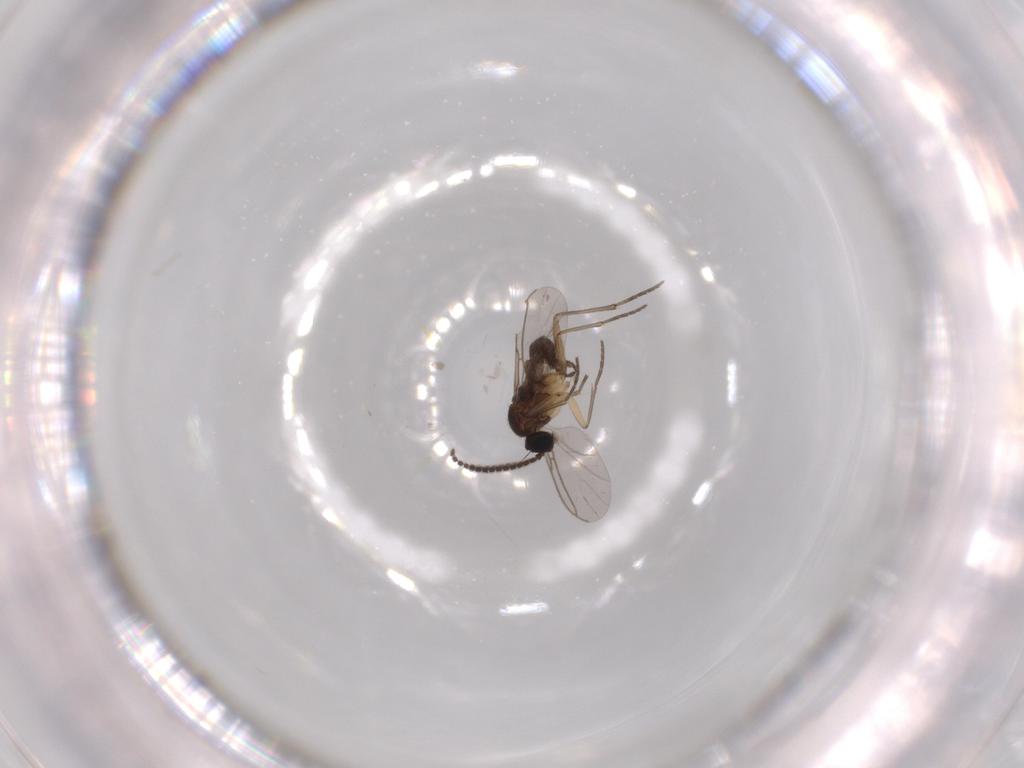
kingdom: Animalia
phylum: Arthropoda
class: Insecta
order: Diptera
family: Sciaridae
